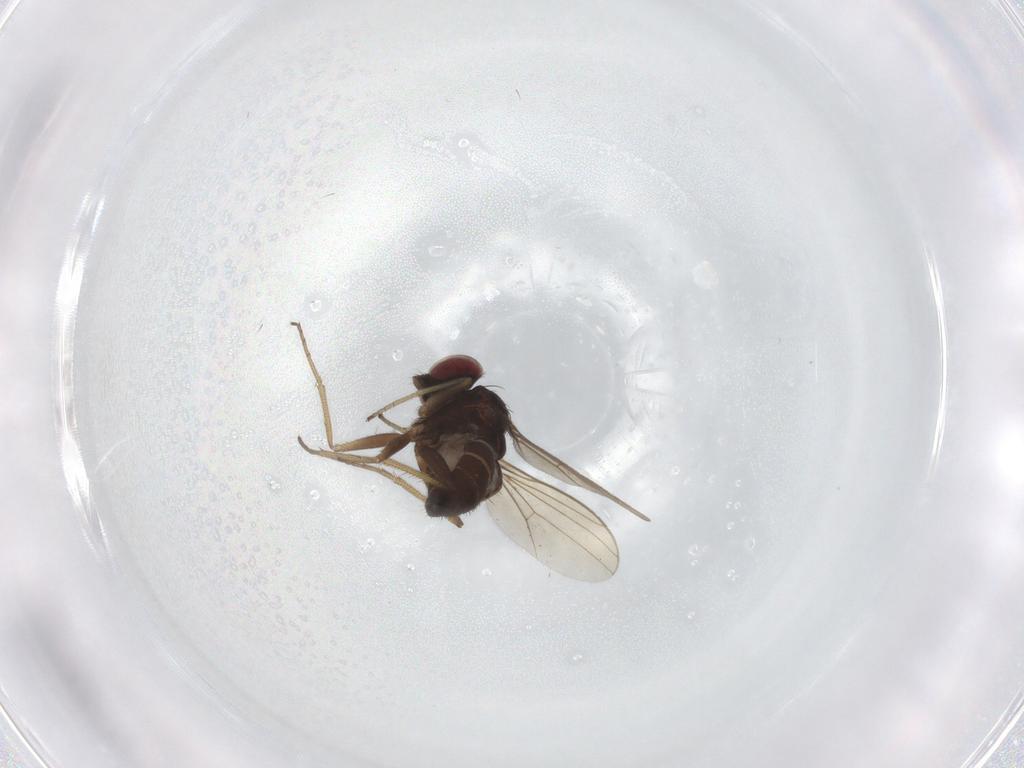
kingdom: Animalia
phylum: Arthropoda
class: Insecta
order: Diptera
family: Dolichopodidae
